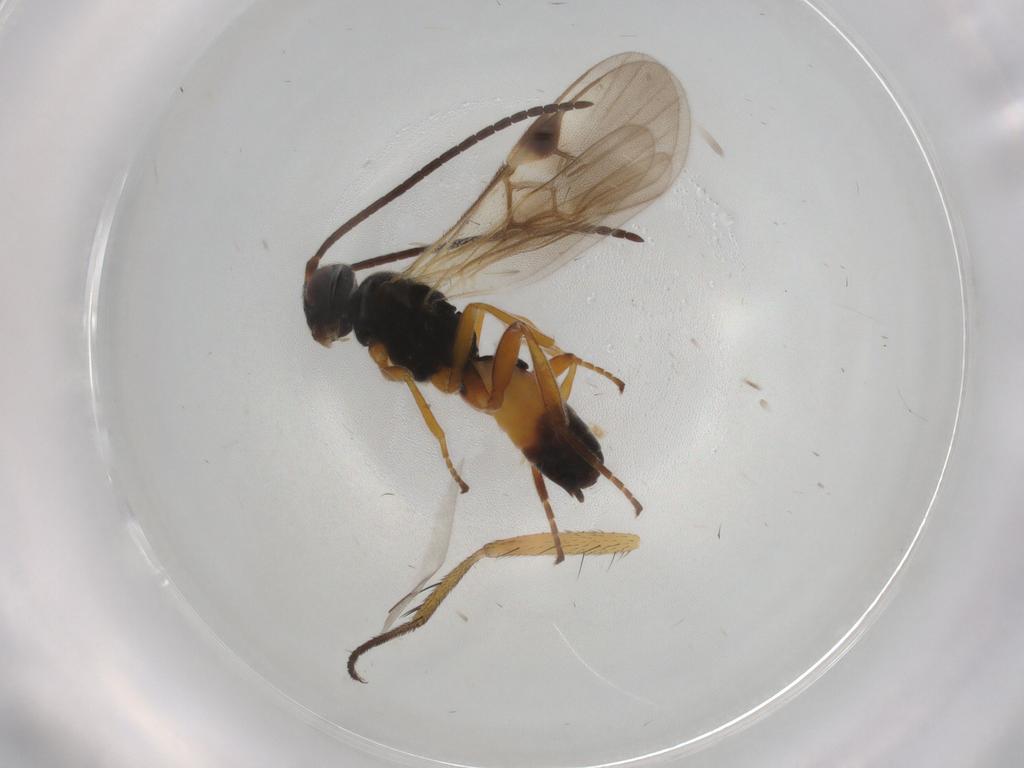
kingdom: Animalia
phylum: Arthropoda
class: Insecta
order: Hymenoptera
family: Braconidae
